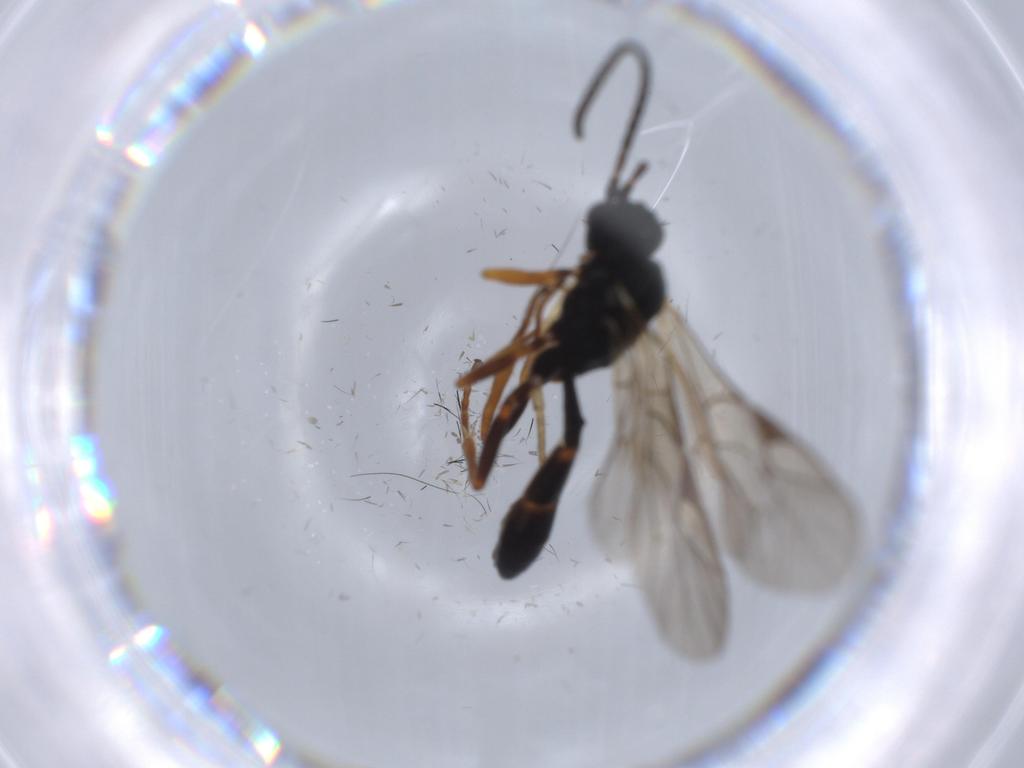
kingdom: Animalia
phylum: Arthropoda
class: Insecta
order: Hymenoptera
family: Ichneumonidae
